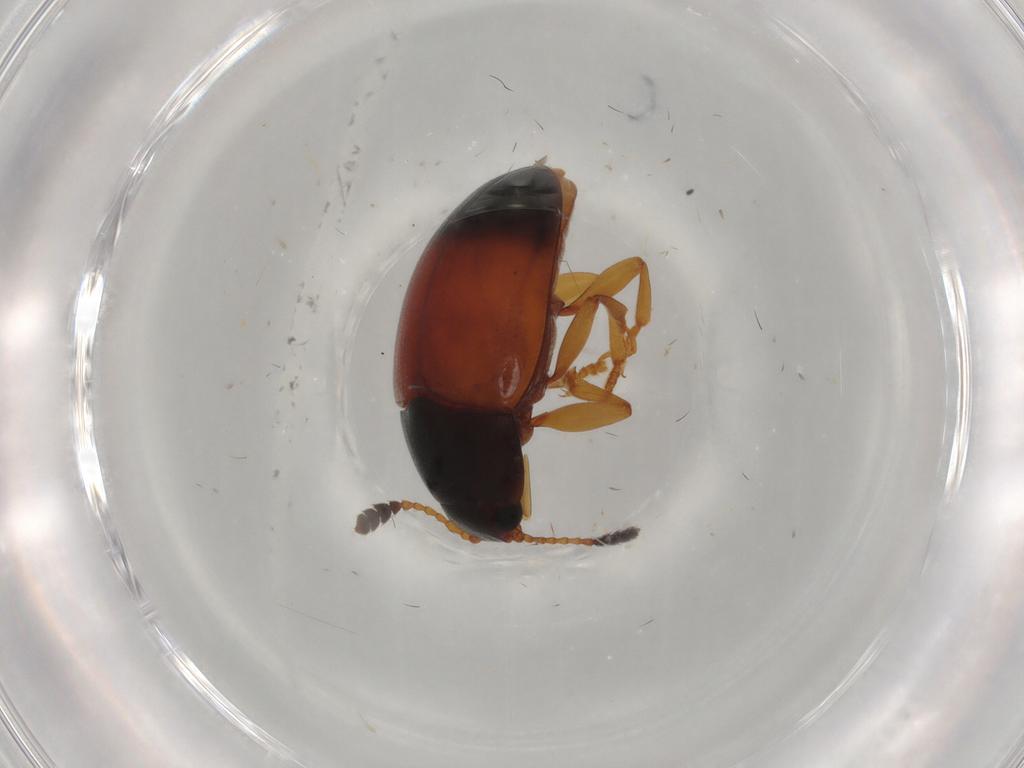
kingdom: Animalia
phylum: Arthropoda
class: Insecta
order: Coleoptera
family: Erotylidae
